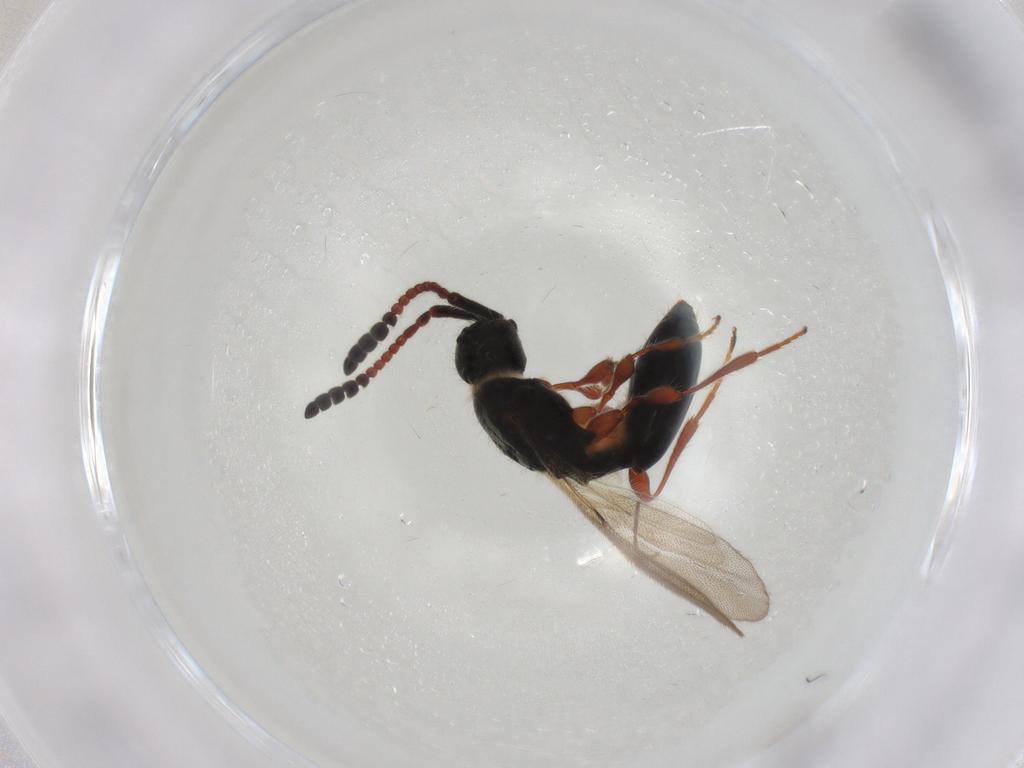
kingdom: Animalia
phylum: Arthropoda
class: Insecta
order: Hymenoptera
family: Diapriidae
